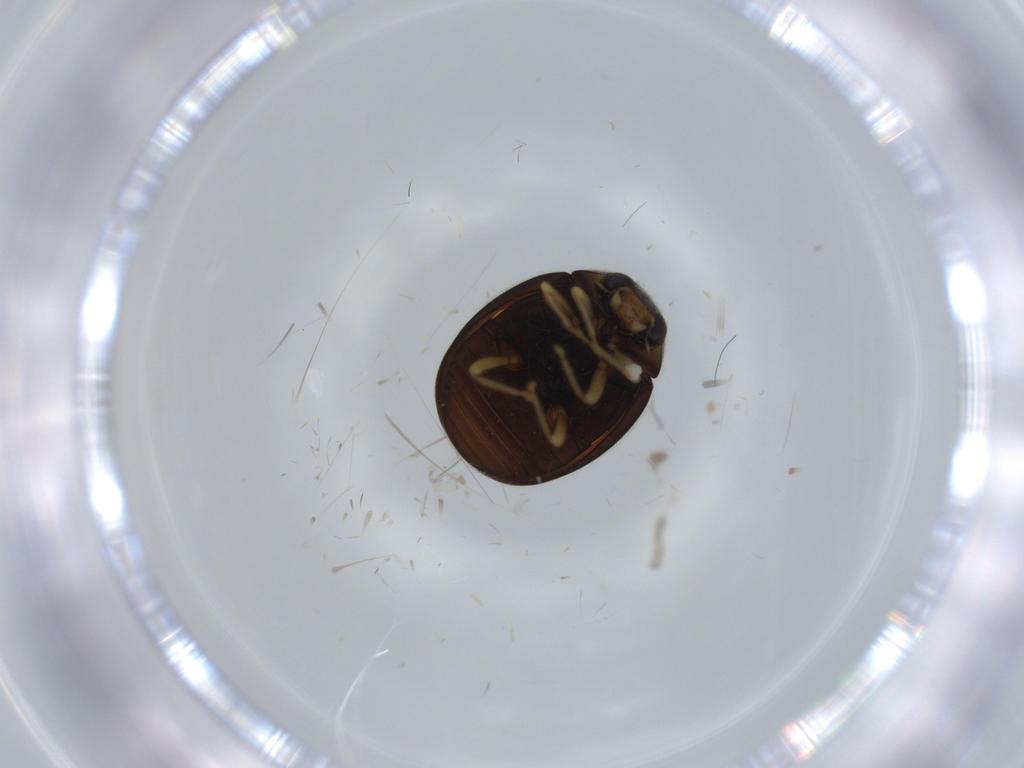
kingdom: Animalia
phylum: Arthropoda
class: Insecta
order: Coleoptera
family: Coccinellidae
